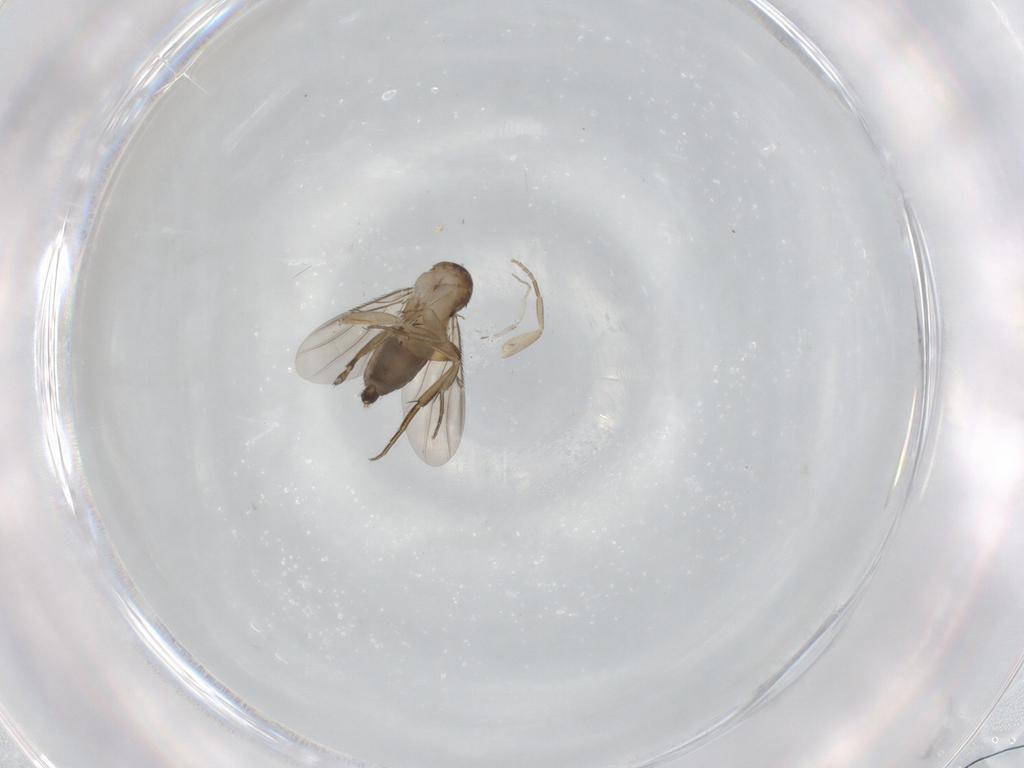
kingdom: Animalia
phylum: Arthropoda
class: Insecta
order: Diptera
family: Phoridae
